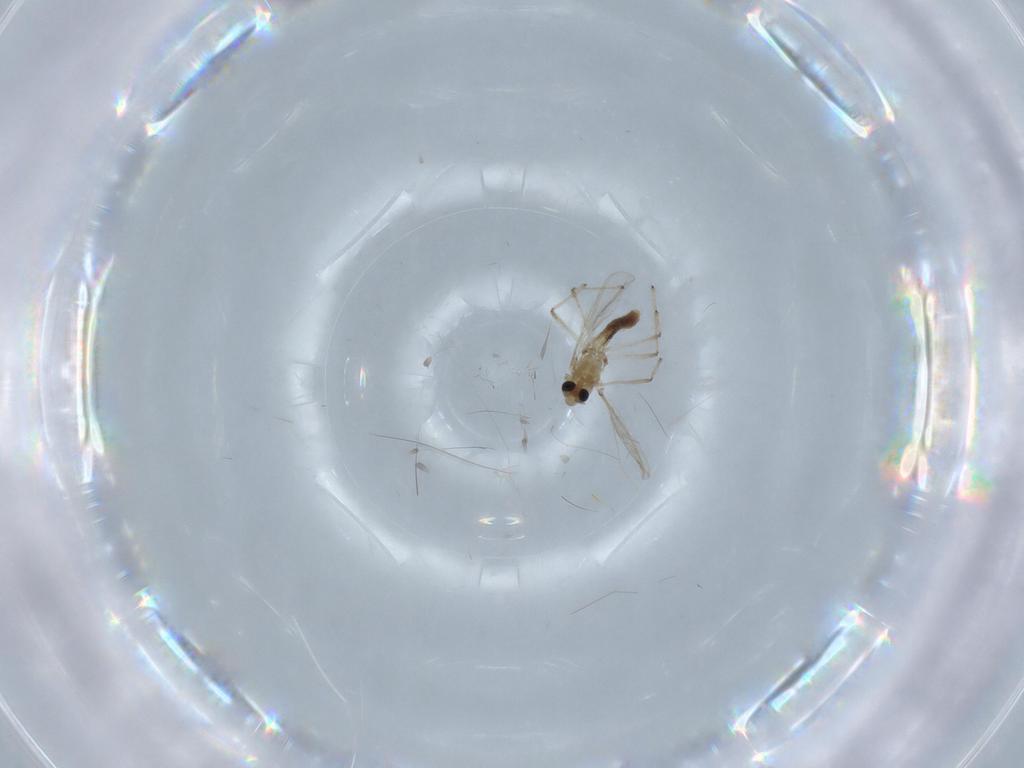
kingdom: Animalia
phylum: Arthropoda
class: Insecta
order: Diptera
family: Chironomidae
